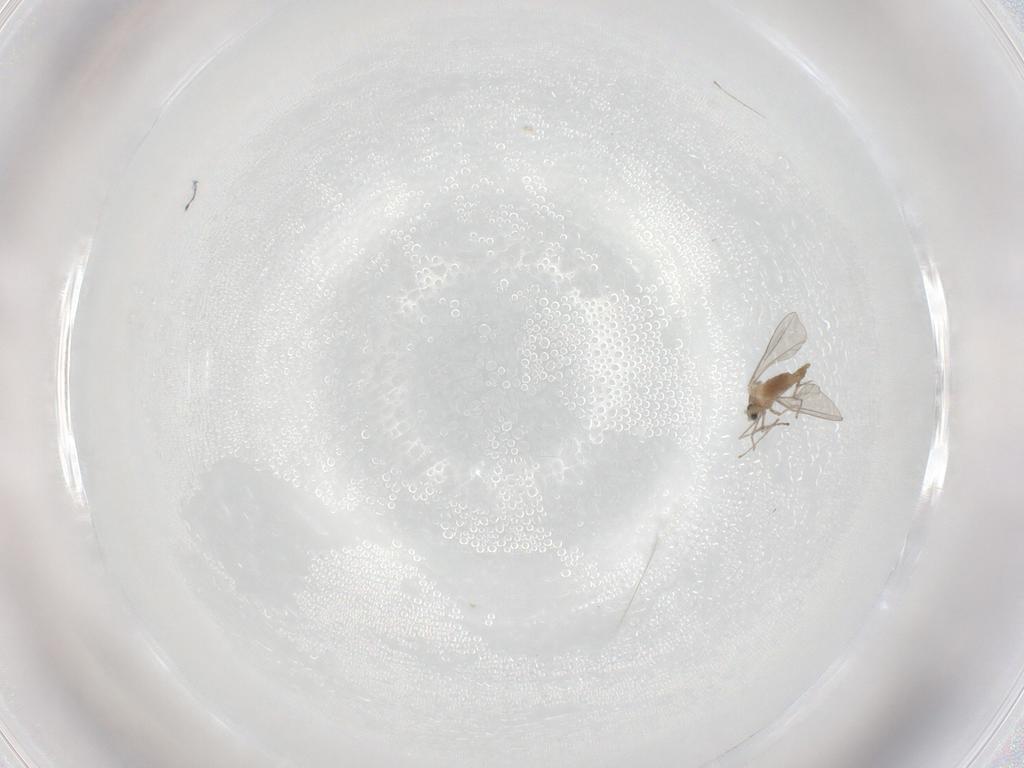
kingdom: Animalia
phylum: Arthropoda
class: Insecta
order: Diptera
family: Cecidomyiidae
